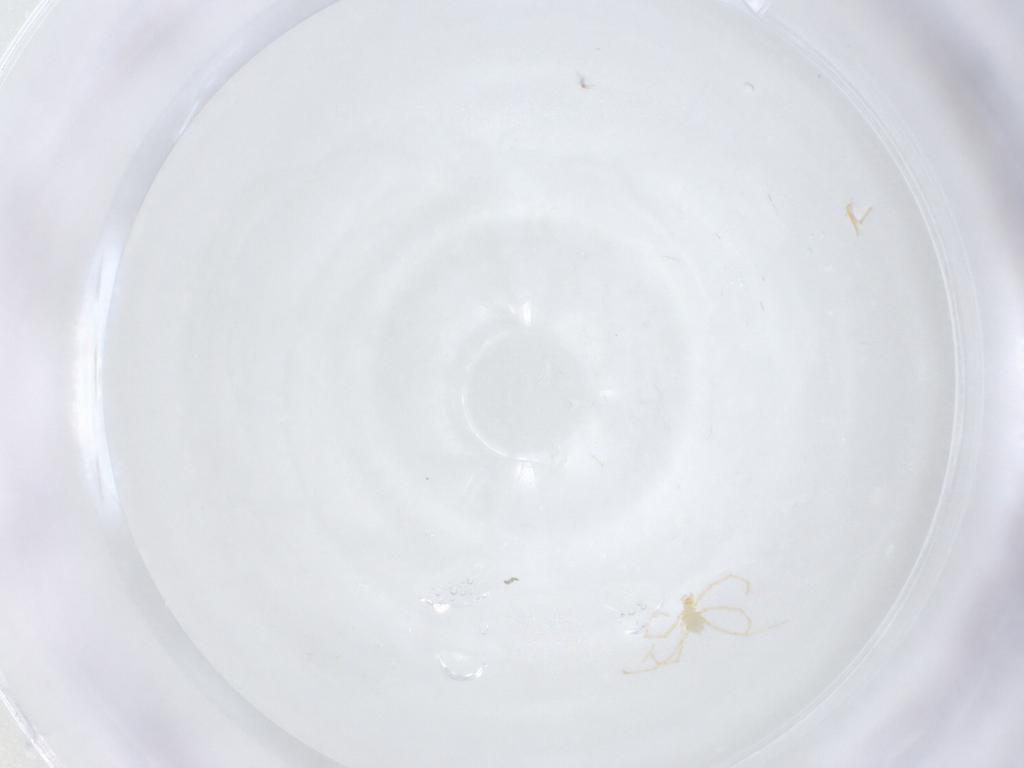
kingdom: Animalia
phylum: Arthropoda
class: Arachnida
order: Trombidiformes
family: Erythraeidae
